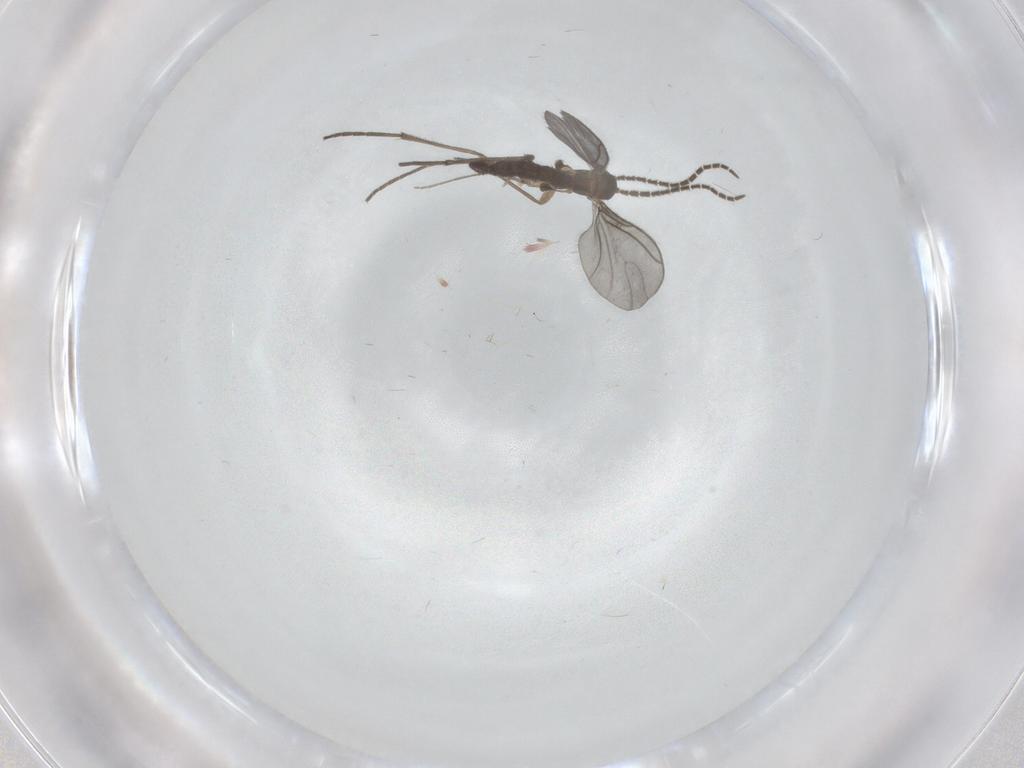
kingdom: Animalia
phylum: Arthropoda
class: Insecta
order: Diptera
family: Sciaridae
